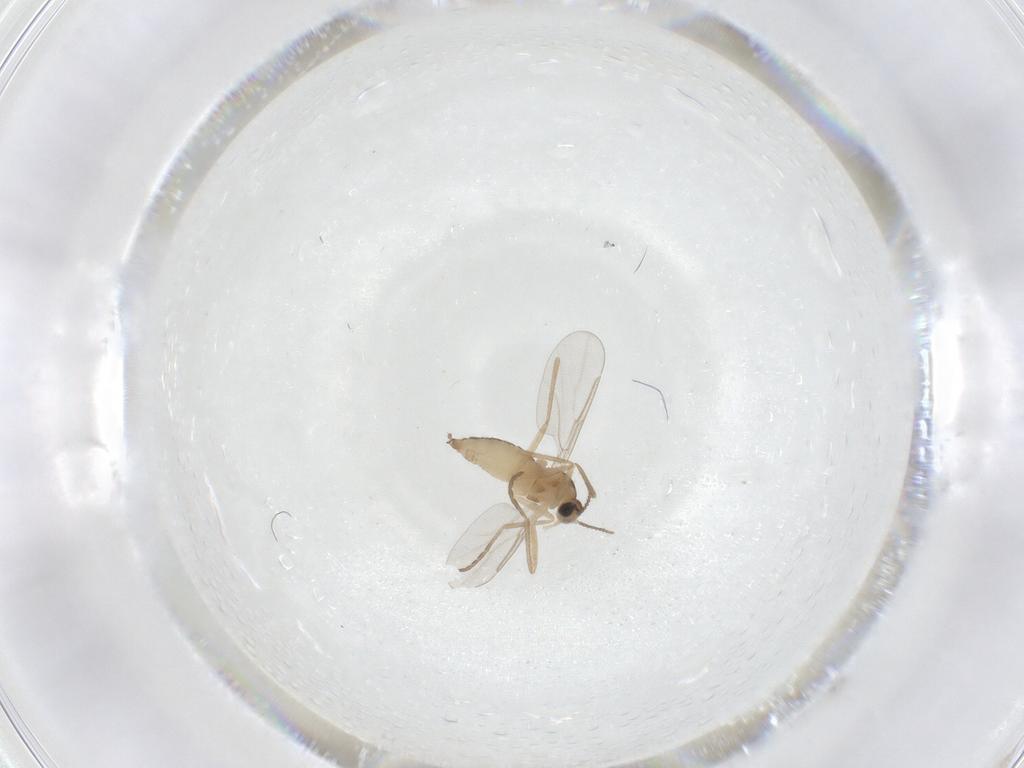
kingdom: Animalia
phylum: Arthropoda
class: Insecta
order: Diptera
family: Cecidomyiidae
